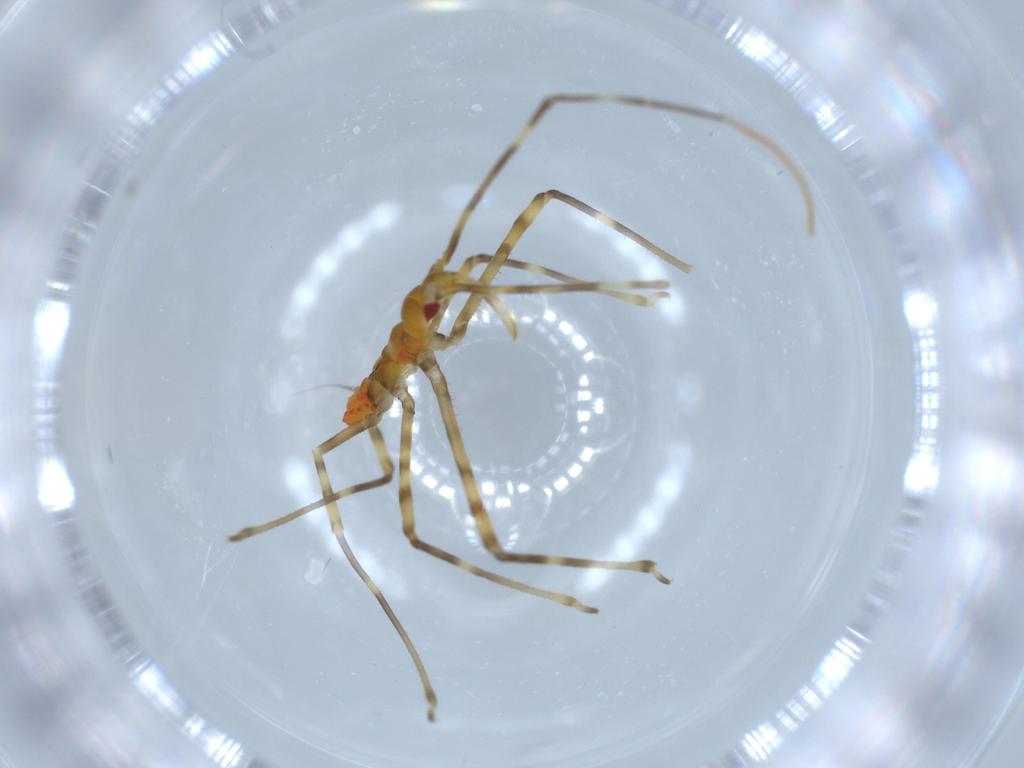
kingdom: Animalia
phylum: Arthropoda
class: Insecta
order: Hemiptera
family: Reduviidae
